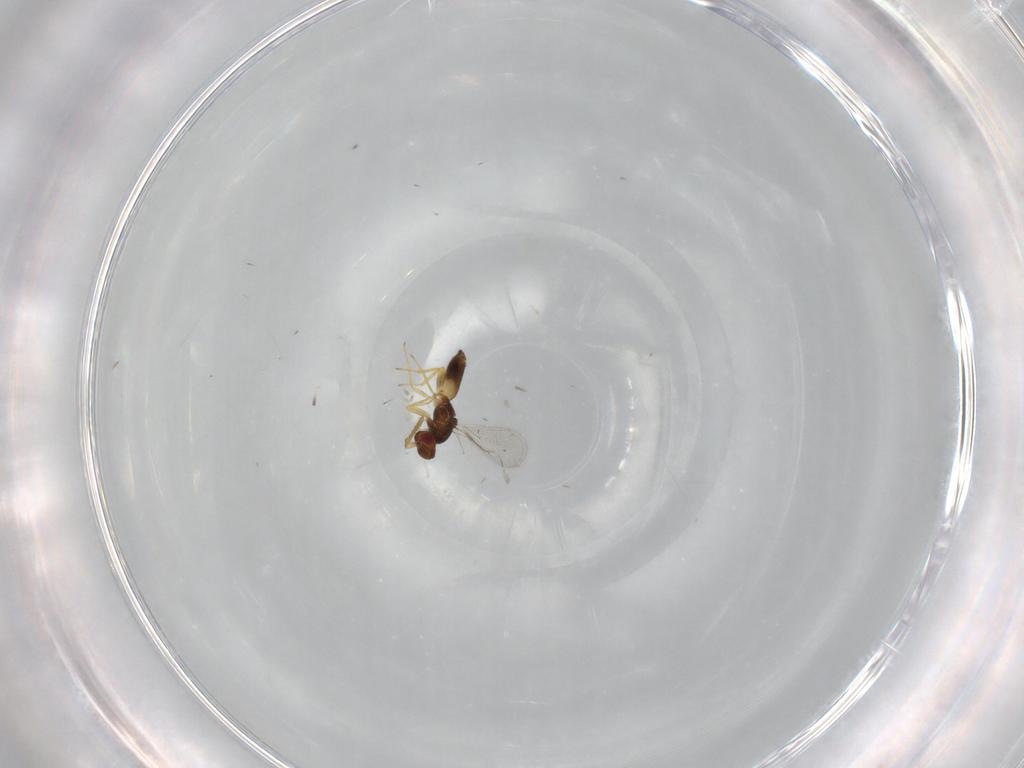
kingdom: Animalia
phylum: Arthropoda
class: Insecta
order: Hymenoptera
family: Eulophidae
